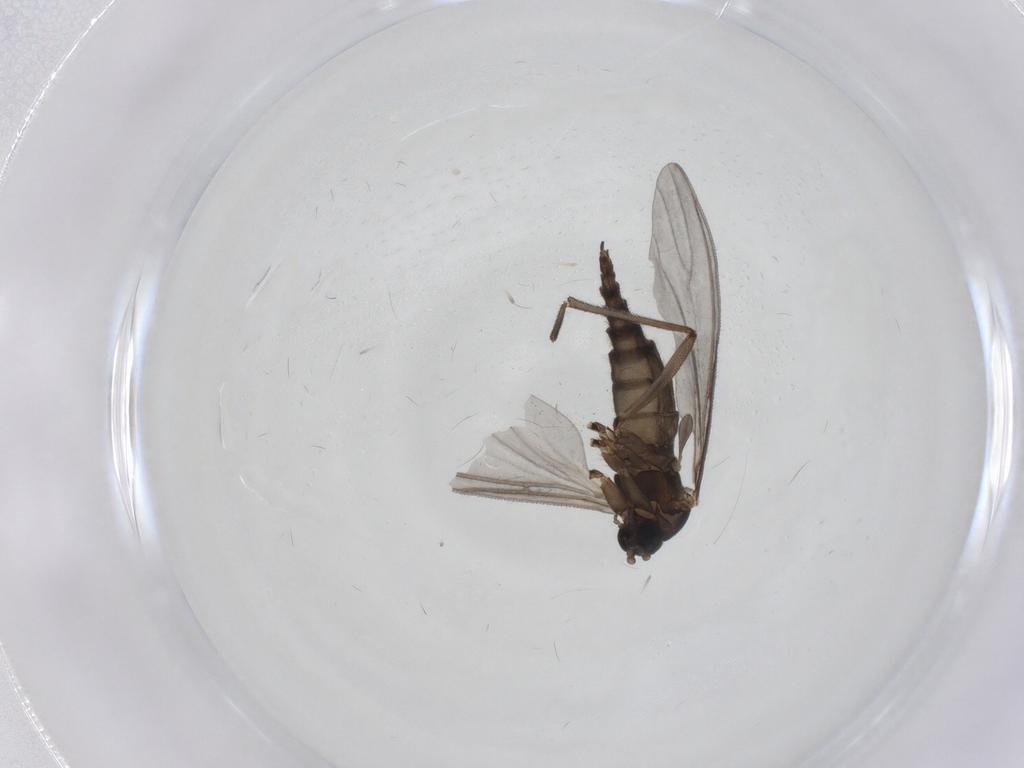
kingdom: Animalia
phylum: Arthropoda
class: Insecta
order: Diptera
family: Sciaridae
